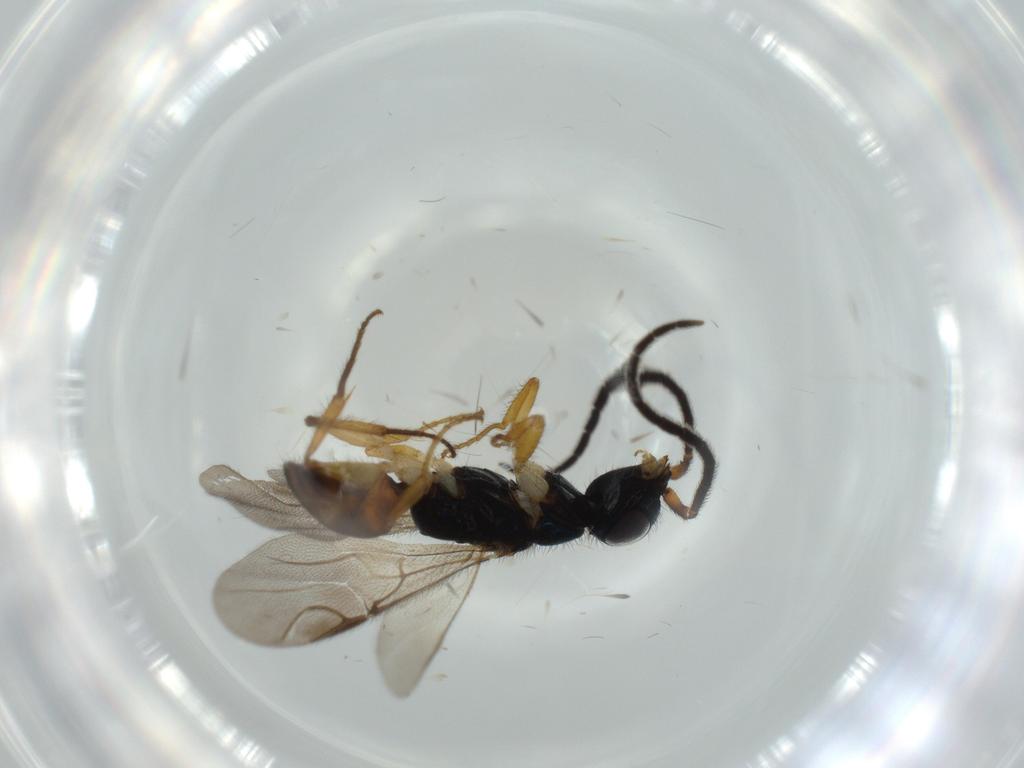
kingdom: Animalia
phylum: Arthropoda
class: Insecta
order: Hymenoptera
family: Chrysididae
